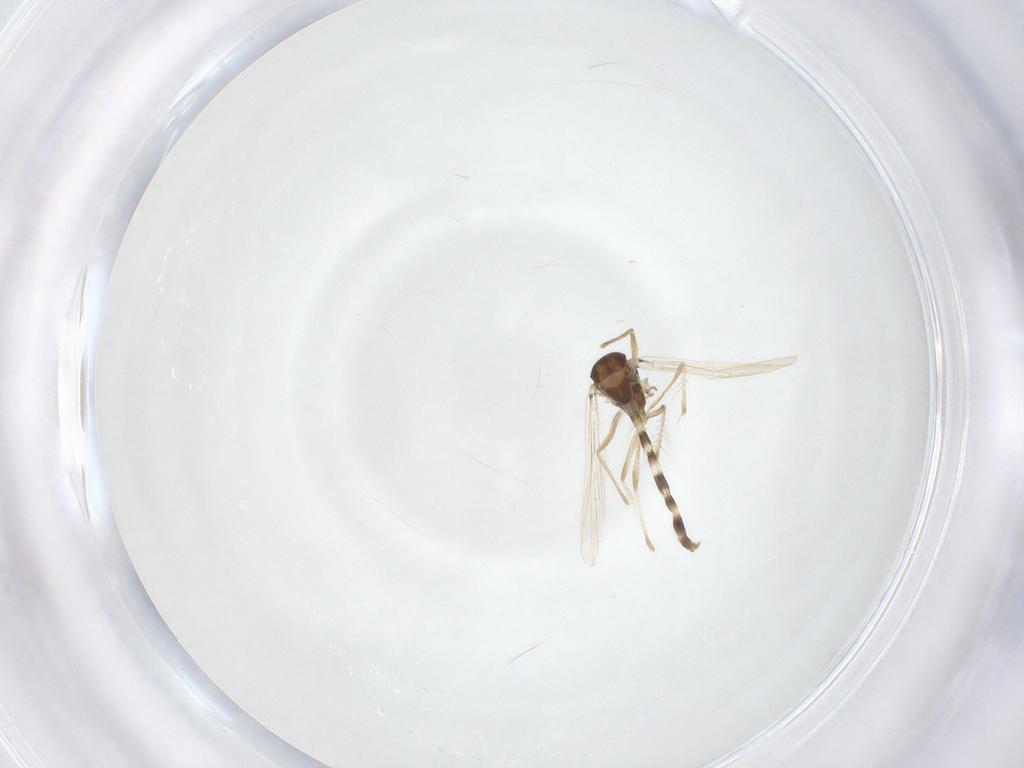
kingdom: Animalia
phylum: Arthropoda
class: Insecta
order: Diptera
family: Chironomidae
